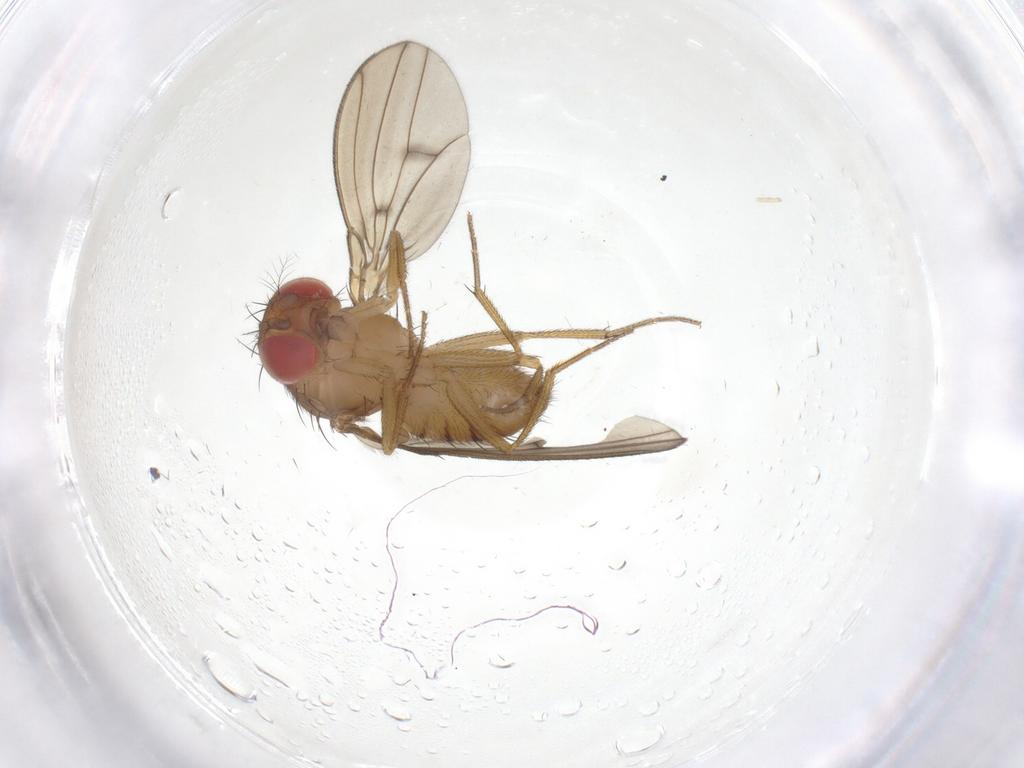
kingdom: Animalia
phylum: Arthropoda
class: Insecta
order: Diptera
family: Drosophilidae
